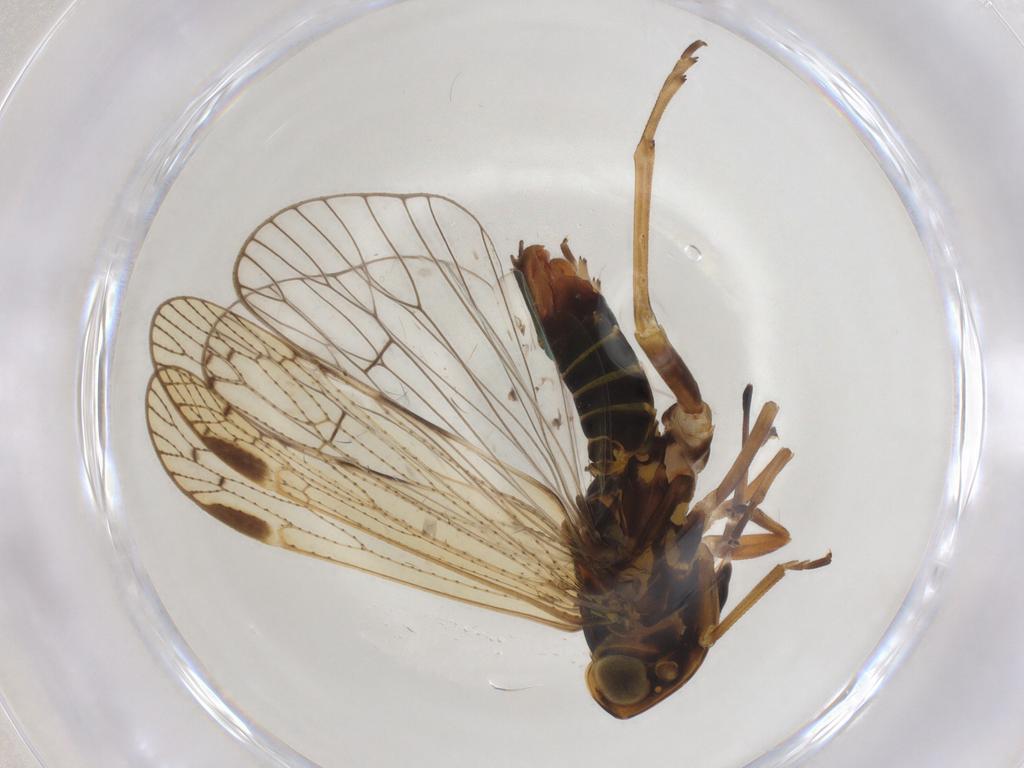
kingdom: Animalia
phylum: Arthropoda
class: Insecta
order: Hemiptera
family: Cixiidae
